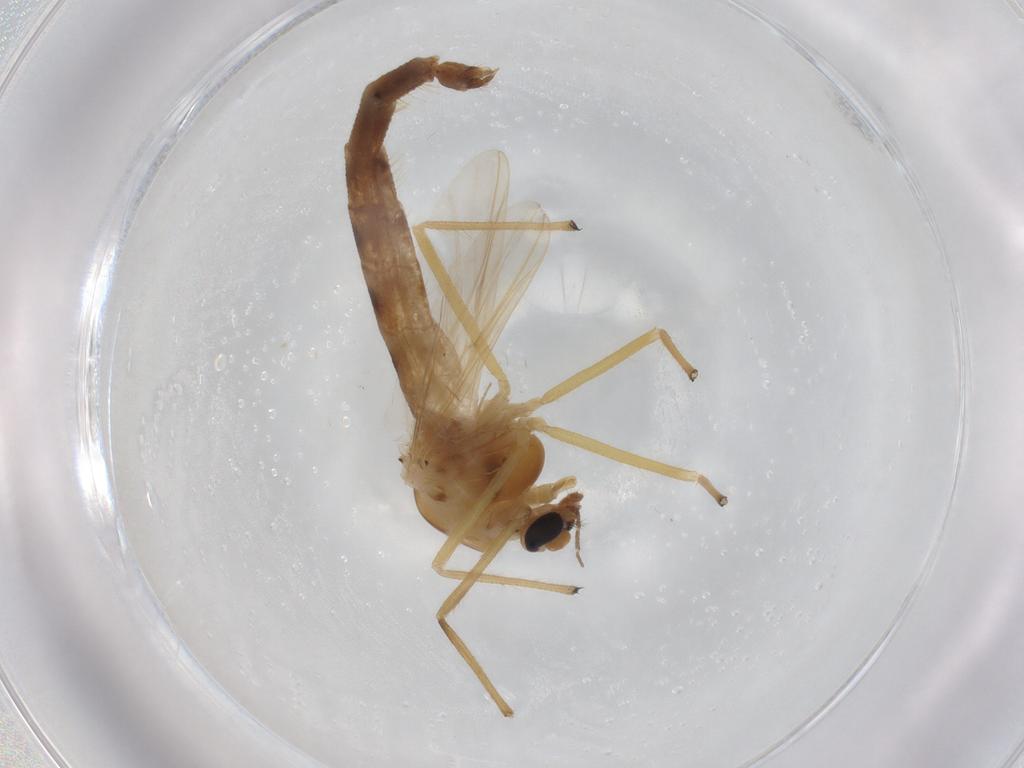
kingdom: Animalia
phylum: Arthropoda
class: Insecta
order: Diptera
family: Chironomidae
